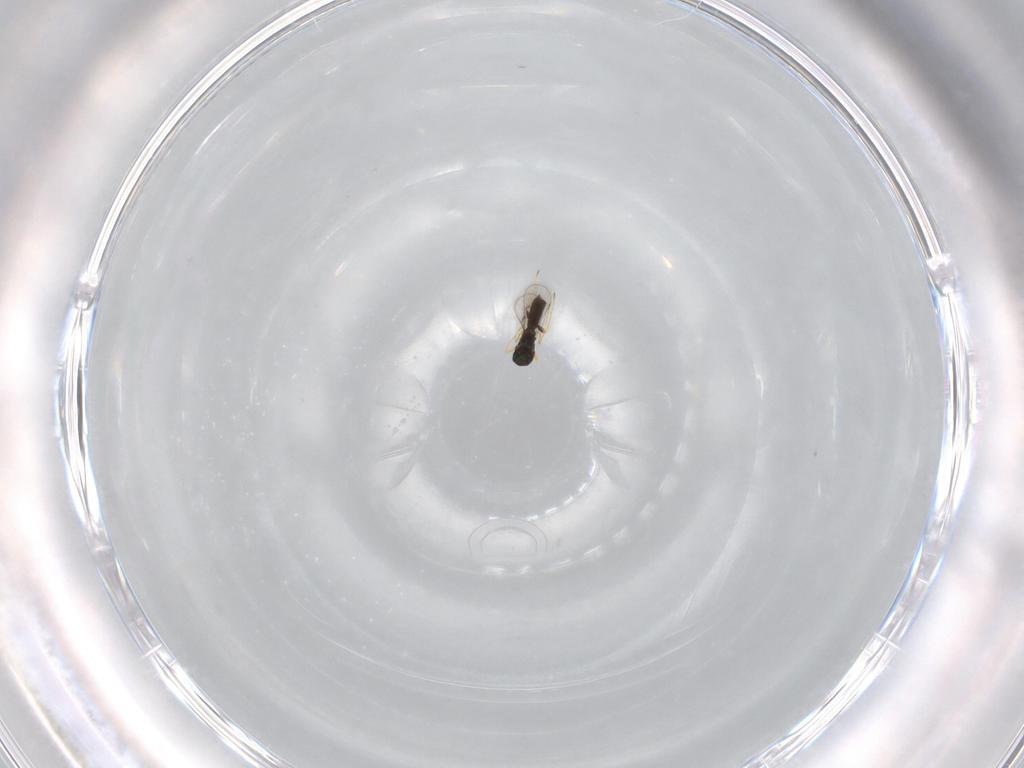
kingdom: Animalia
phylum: Arthropoda
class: Insecta
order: Hymenoptera
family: Eulophidae
